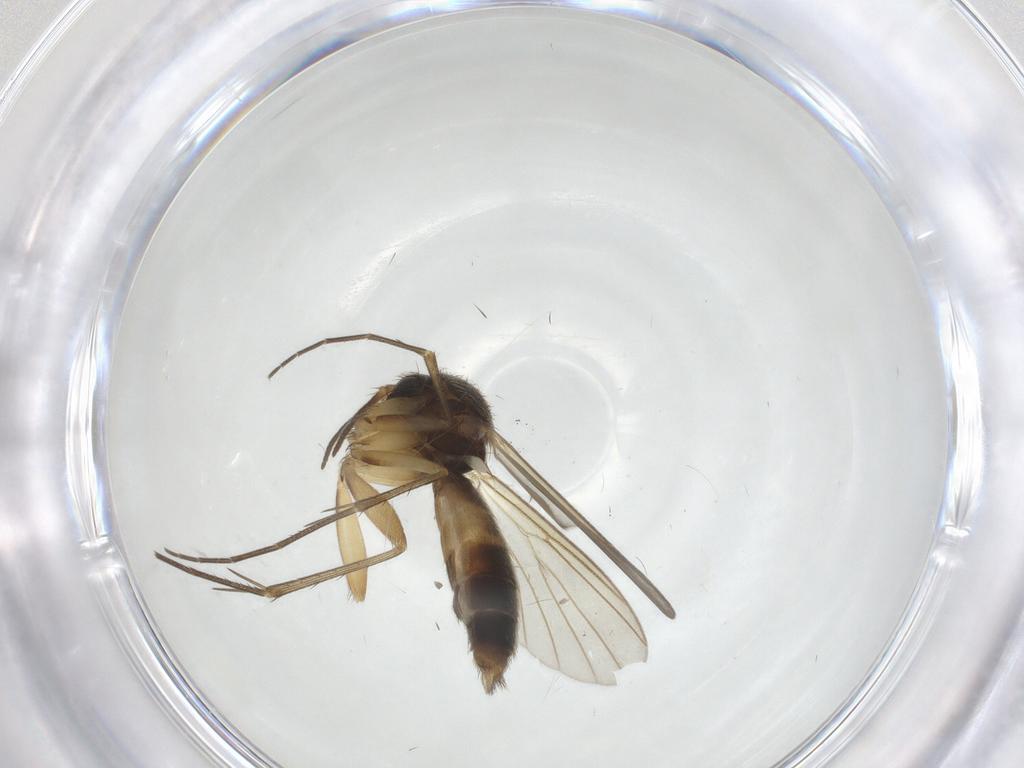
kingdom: Animalia
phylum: Arthropoda
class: Insecta
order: Diptera
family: Mycetophilidae
